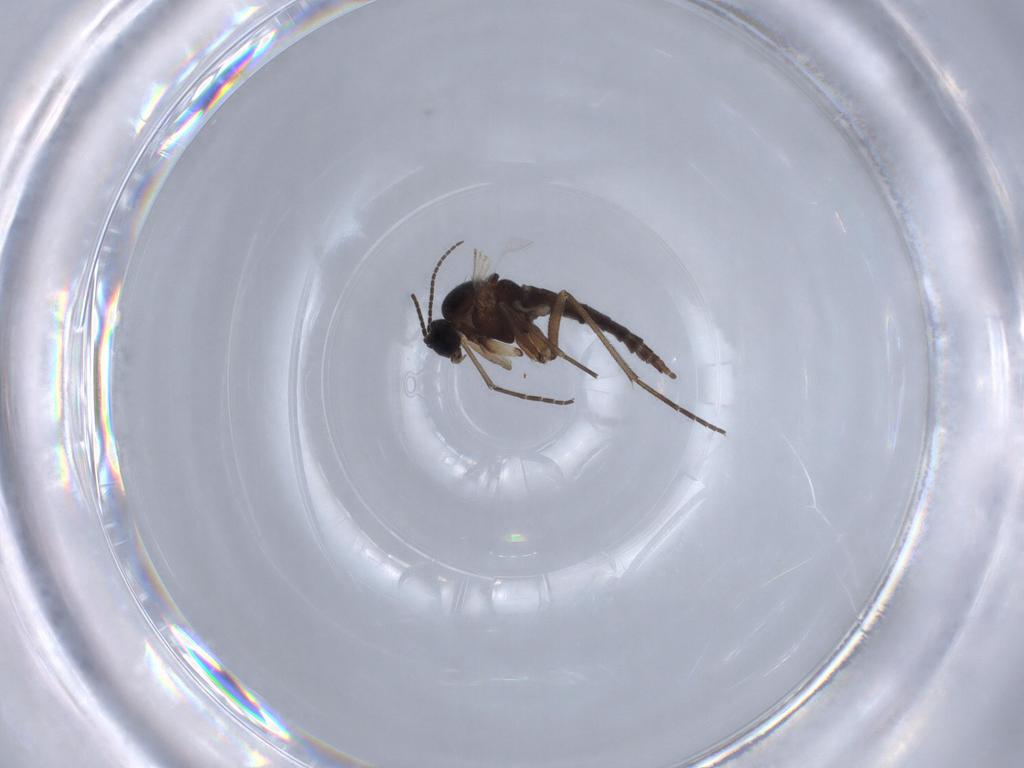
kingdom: Animalia
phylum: Arthropoda
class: Insecta
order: Diptera
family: Sciaridae
